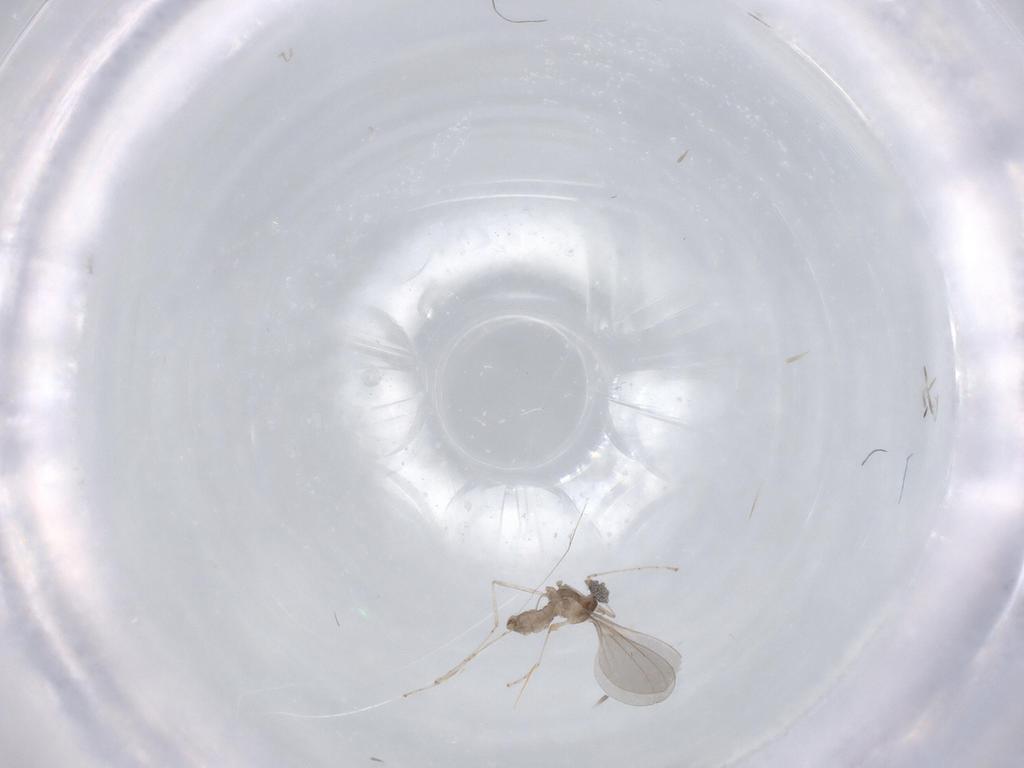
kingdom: Animalia
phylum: Arthropoda
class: Insecta
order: Diptera
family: Cecidomyiidae
